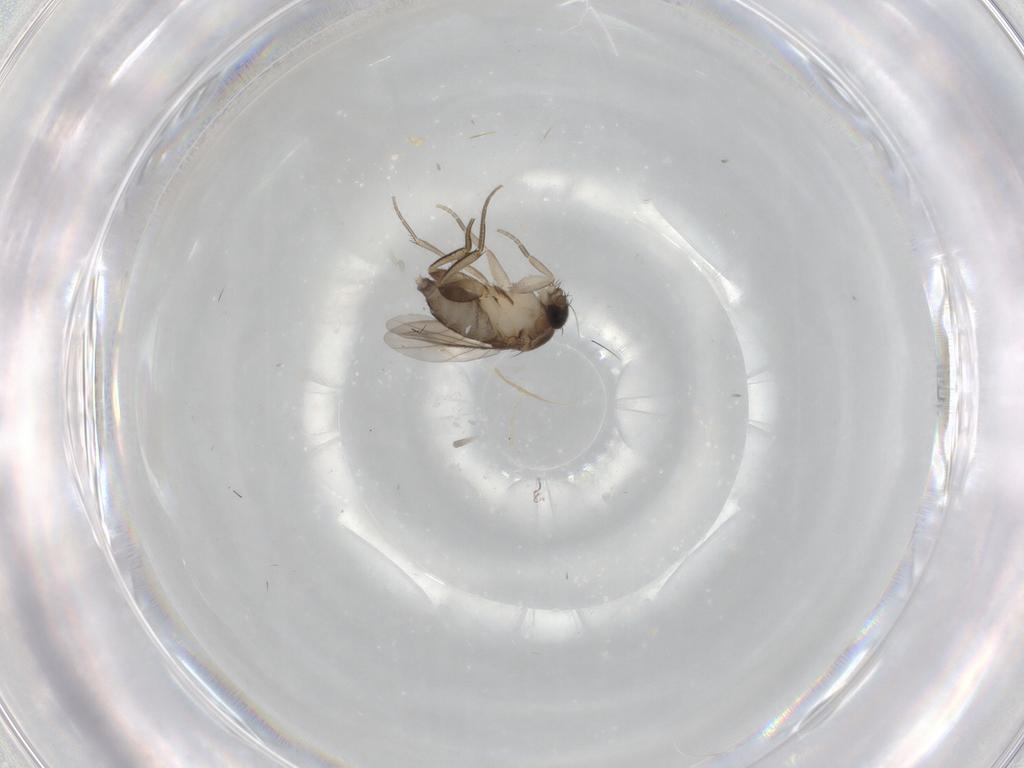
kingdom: Animalia
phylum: Arthropoda
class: Insecta
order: Diptera
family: Phoridae
